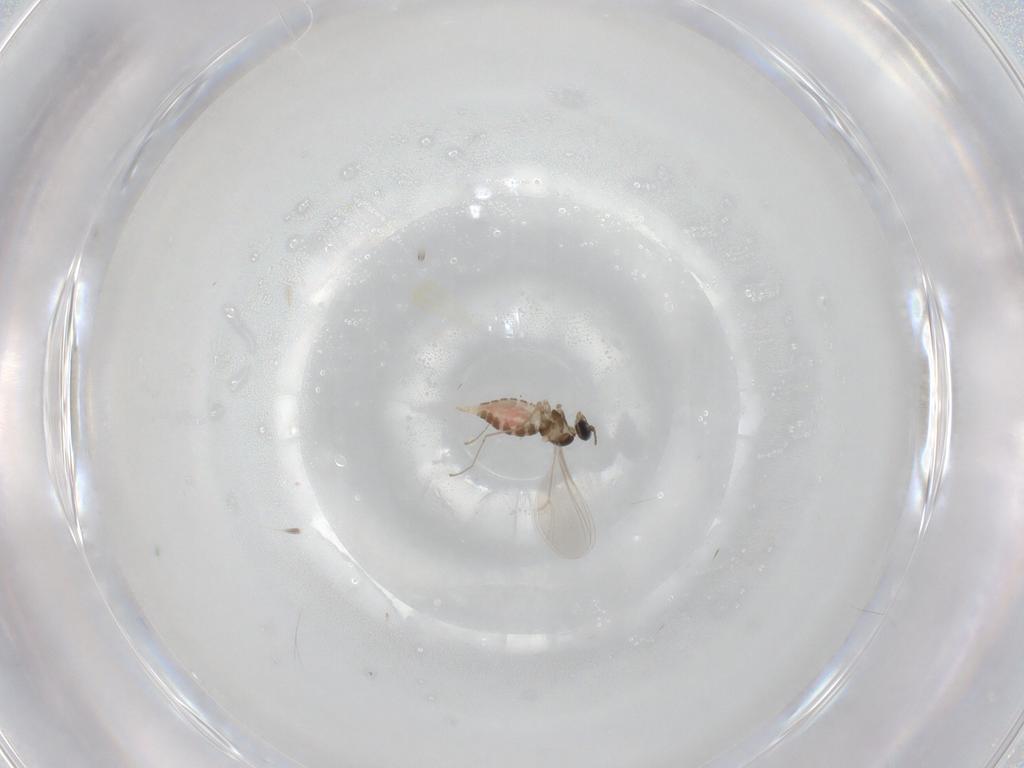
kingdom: Animalia
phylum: Arthropoda
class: Insecta
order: Diptera
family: Cecidomyiidae
